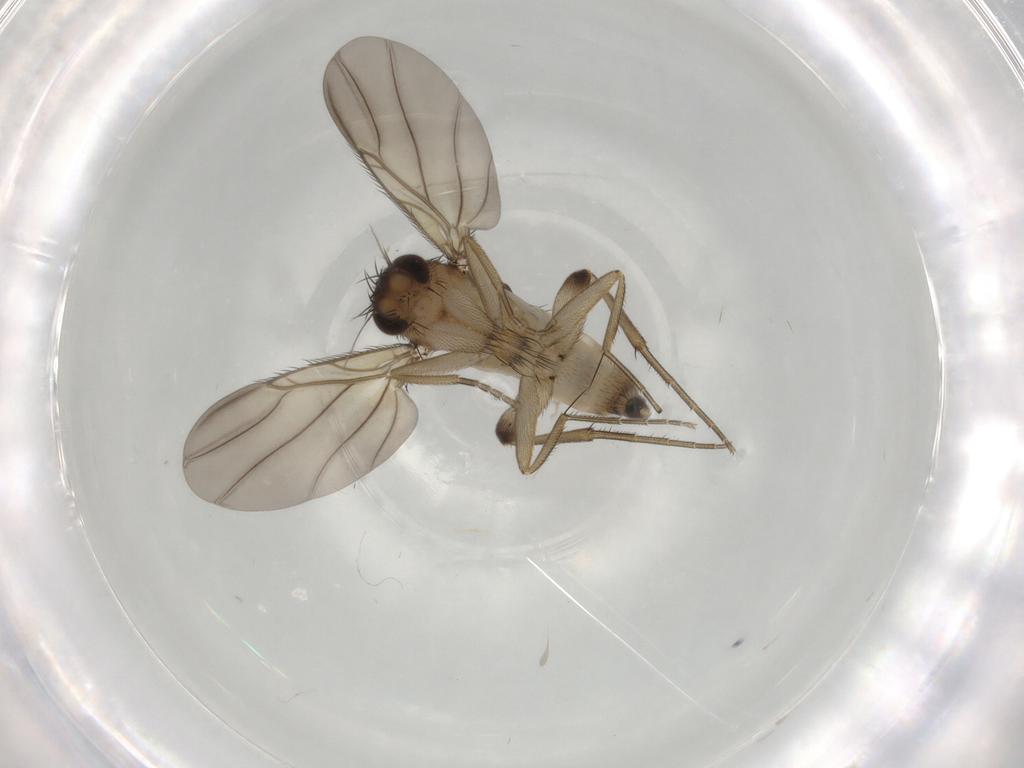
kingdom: Animalia
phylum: Arthropoda
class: Insecta
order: Diptera
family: Phoridae
